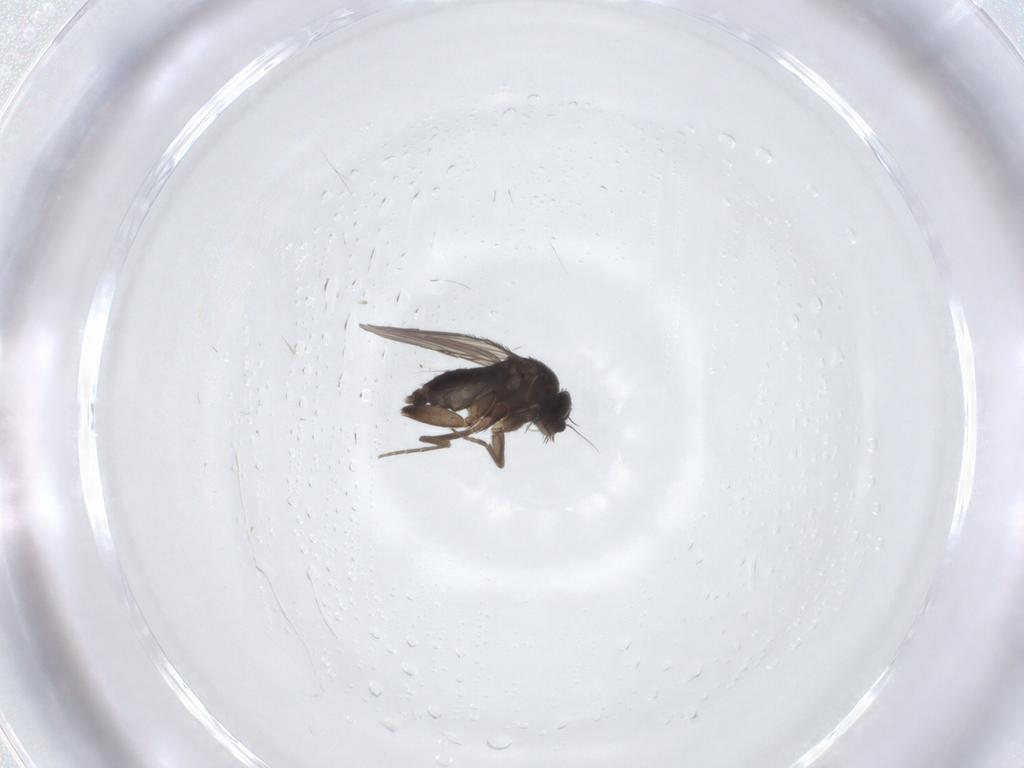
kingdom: Animalia
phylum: Arthropoda
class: Insecta
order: Diptera
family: Phoridae
